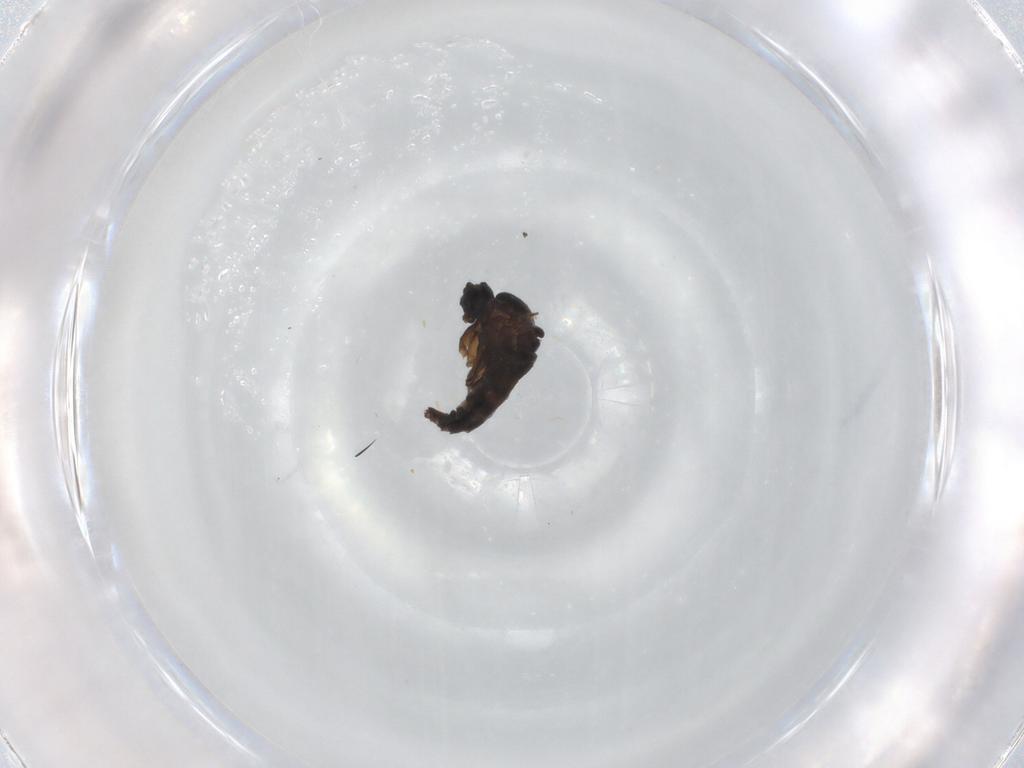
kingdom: Animalia
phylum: Arthropoda
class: Insecta
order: Diptera
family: Sciaridae
